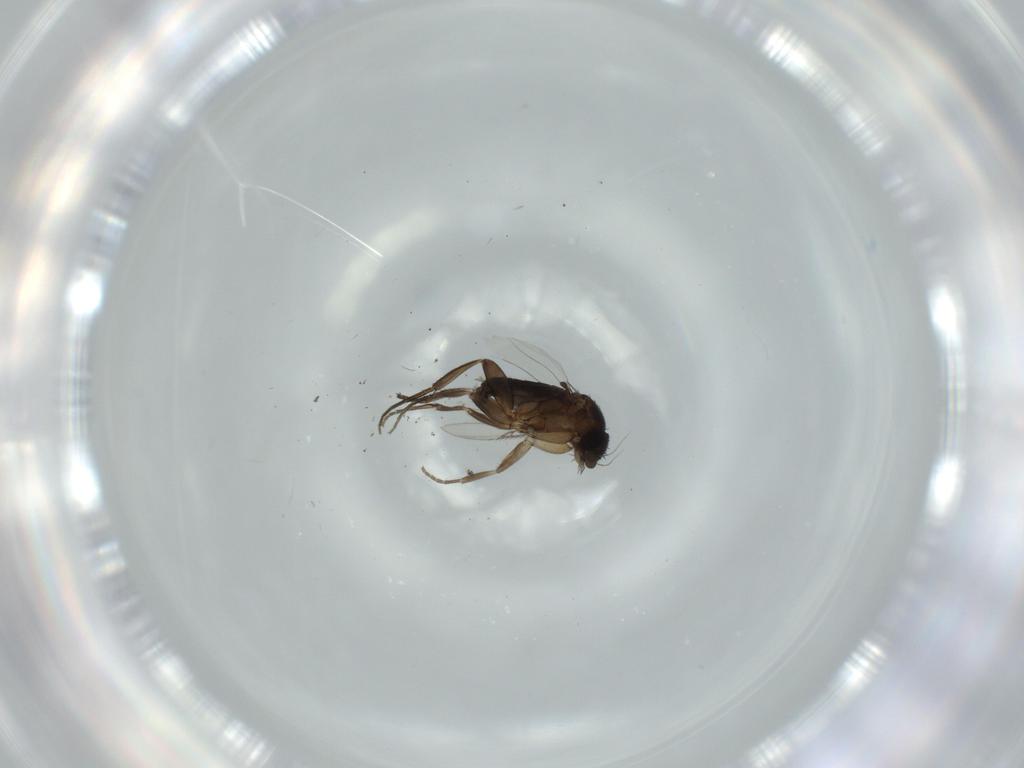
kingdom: Animalia
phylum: Arthropoda
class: Insecta
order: Diptera
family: Phoridae
